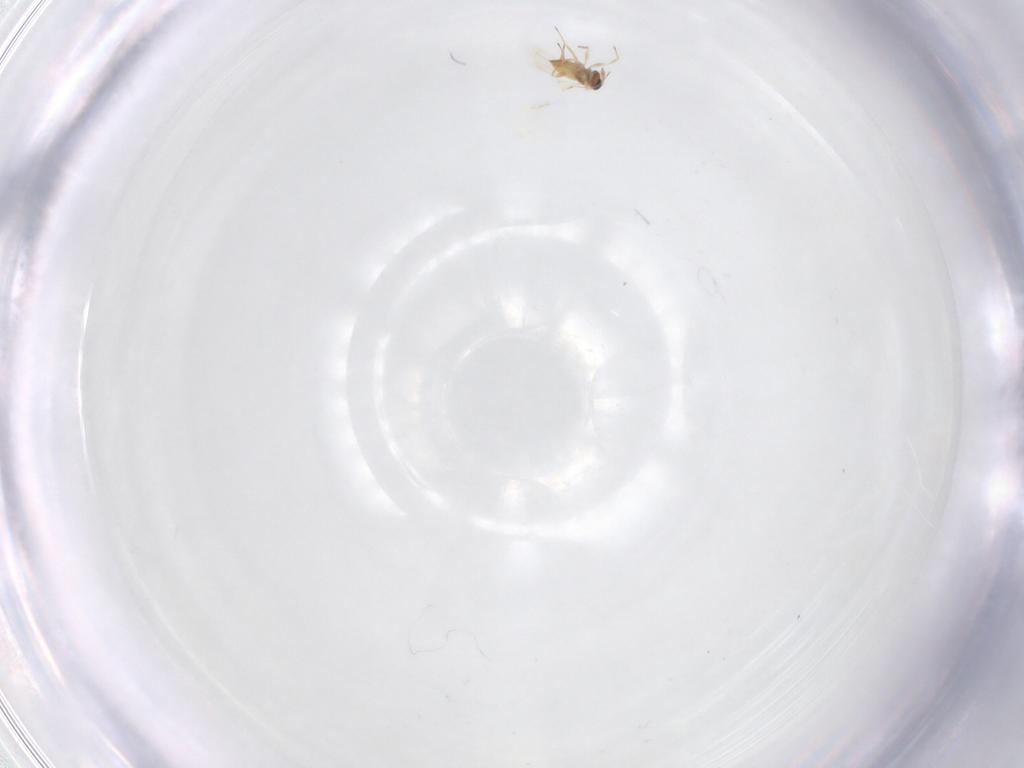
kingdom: Animalia
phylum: Arthropoda
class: Insecta
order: Hymenoptera
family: Trichogrammatidae
